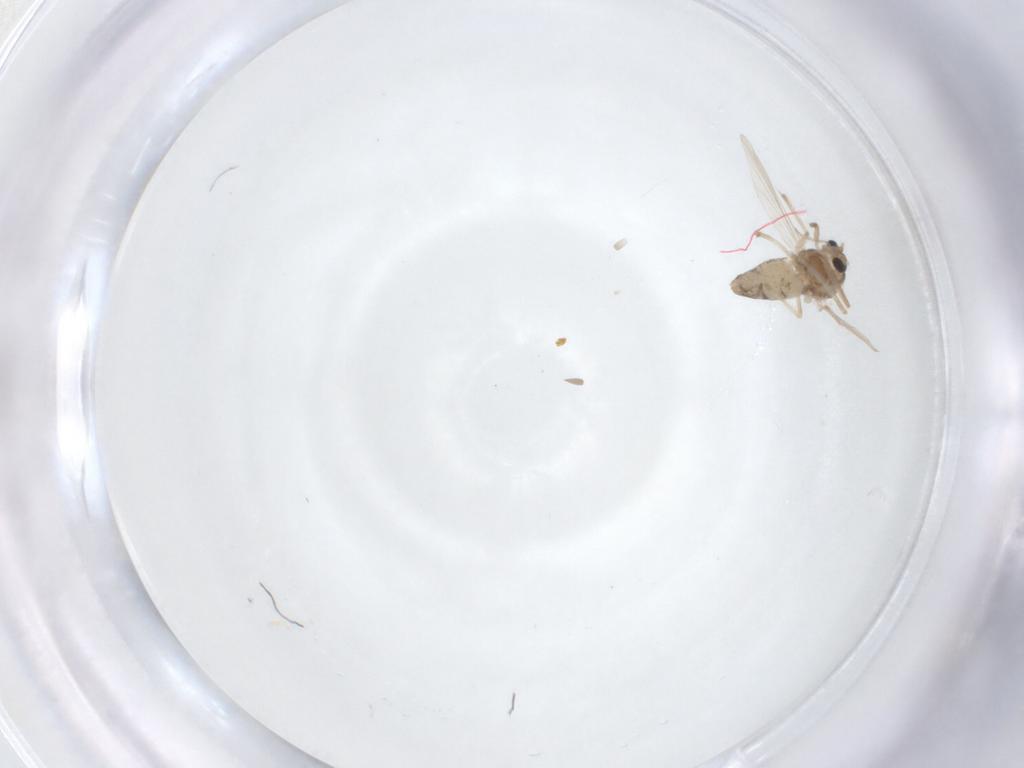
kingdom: Animalia
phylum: Arthropoda
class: Insecta
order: Diptera
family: Chironomidae
